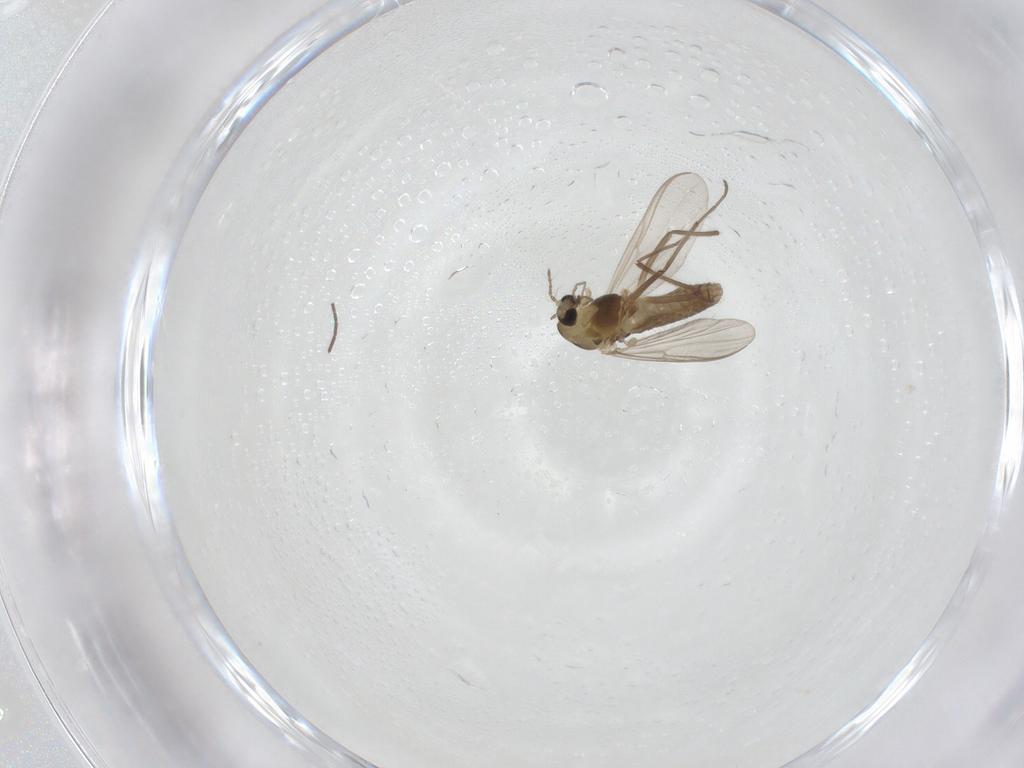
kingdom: Animalia
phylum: Arthropoda
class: Insecta
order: Diptera
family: Chironomidae
